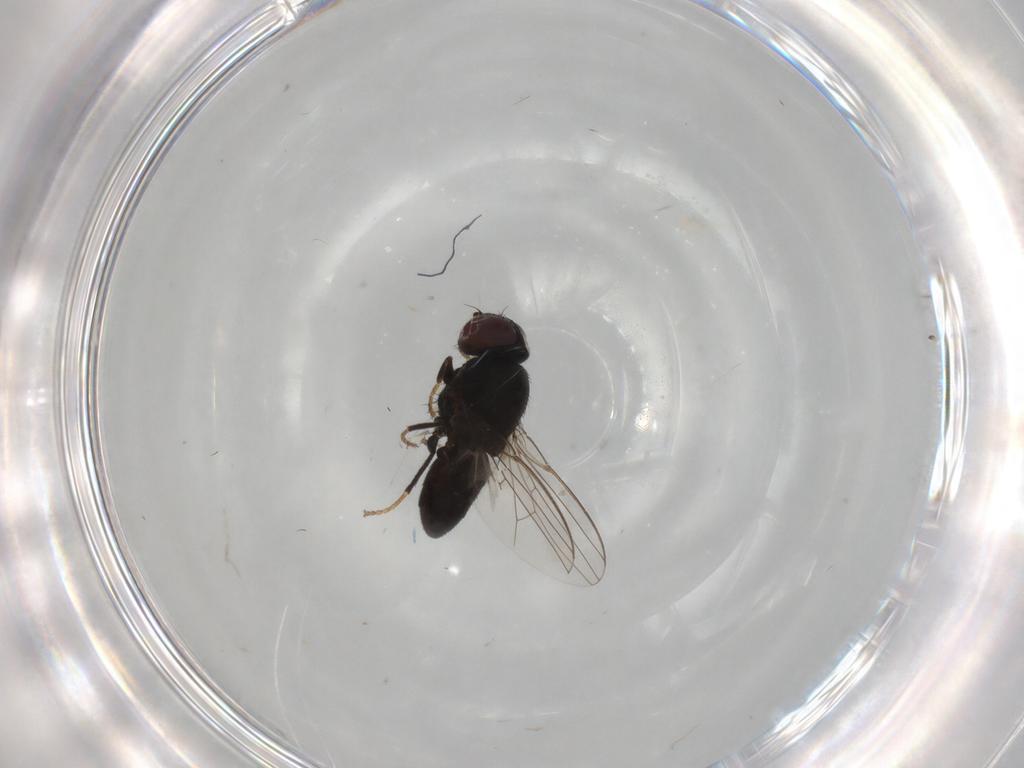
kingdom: Animalia
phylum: Arthropoda
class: Insecta
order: Diptera
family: Milichiidae
